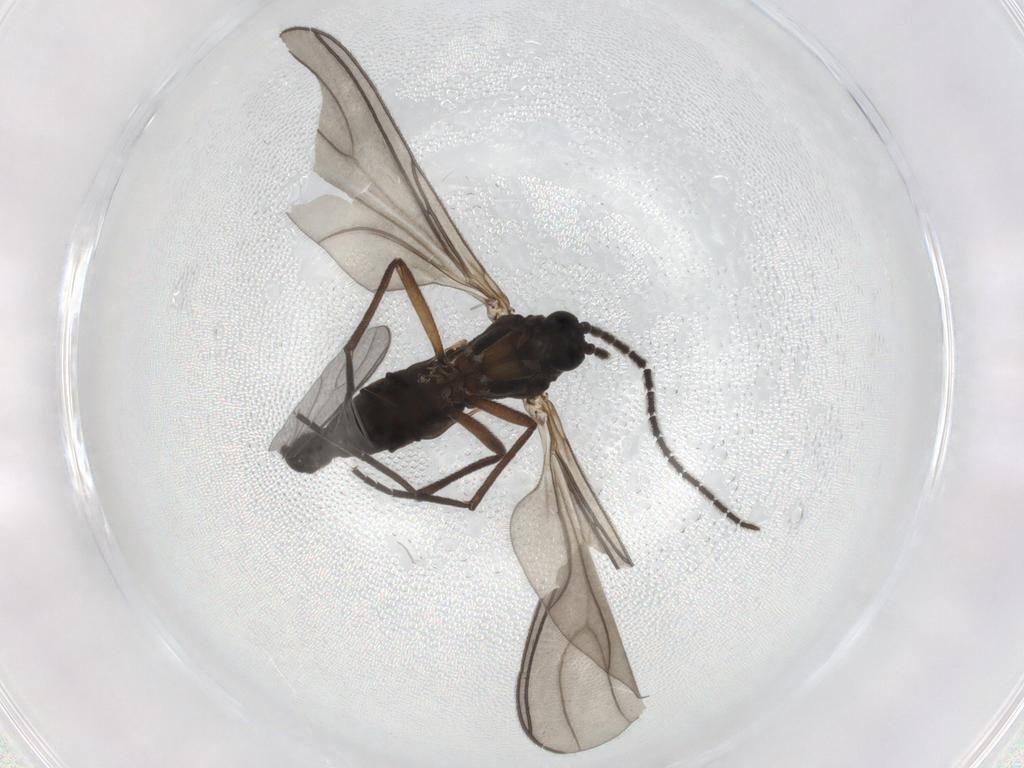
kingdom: Animalia
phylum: Arthropoda
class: Insecta
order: Diptera
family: Sciaridae
